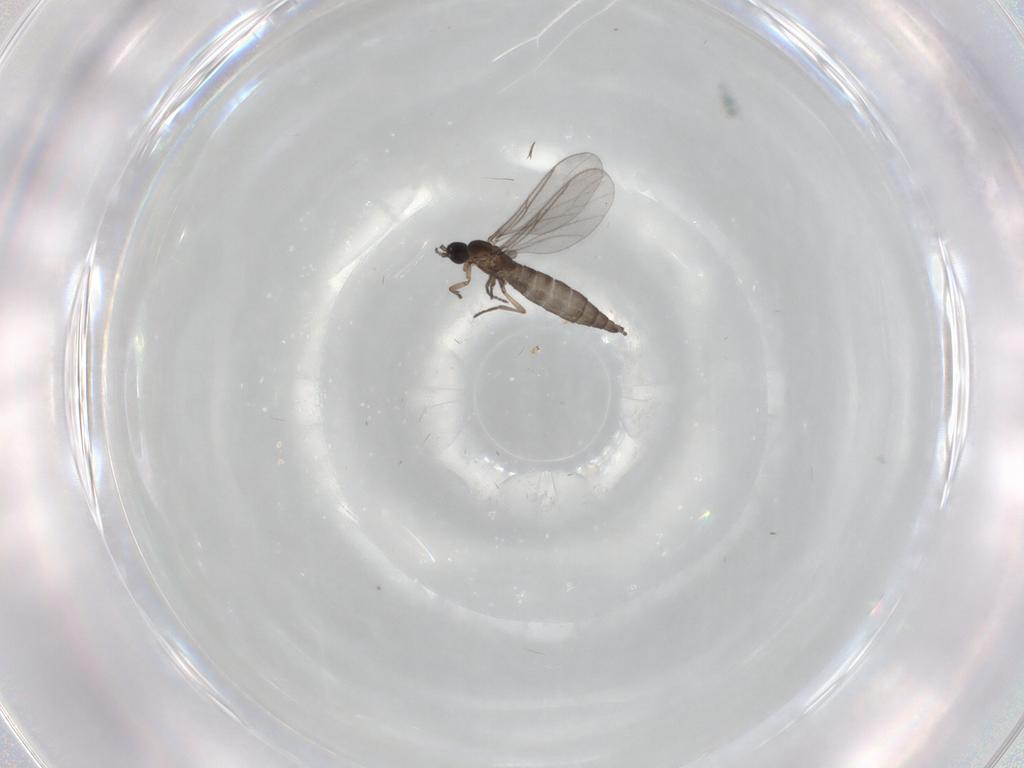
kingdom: Animalia
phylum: Arthropoda
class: Insecta
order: Diptera
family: Sciaridae
